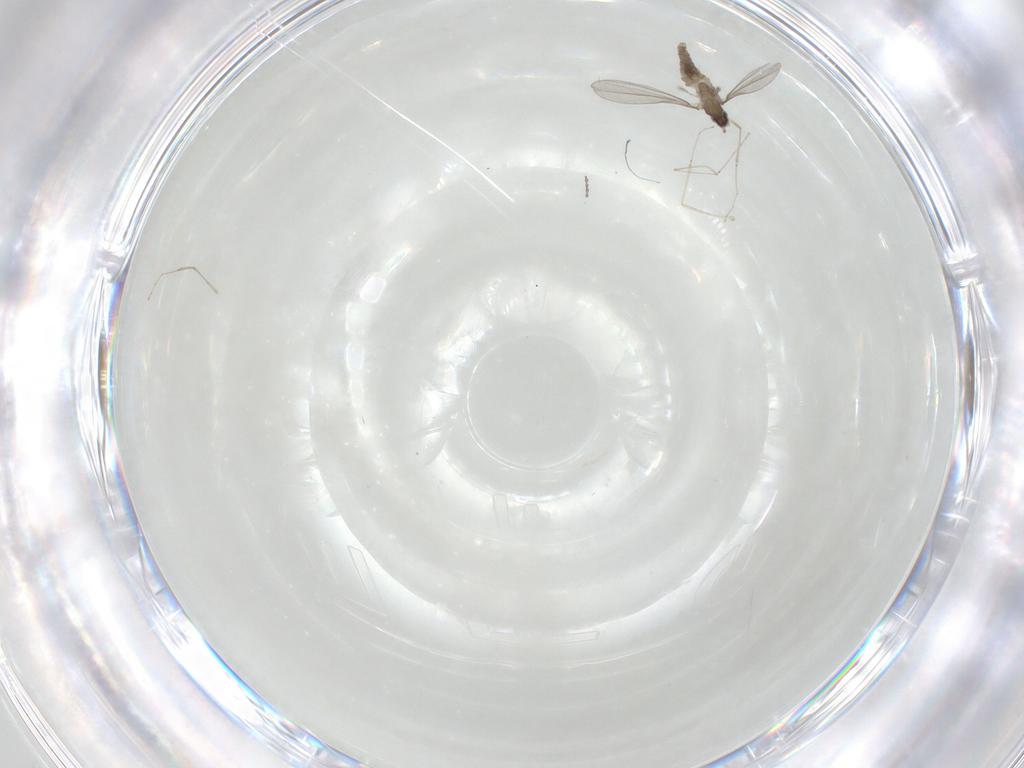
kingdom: Animalia
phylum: Arthropoda
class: Insecta
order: Diptera
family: Cecidomyiidae
